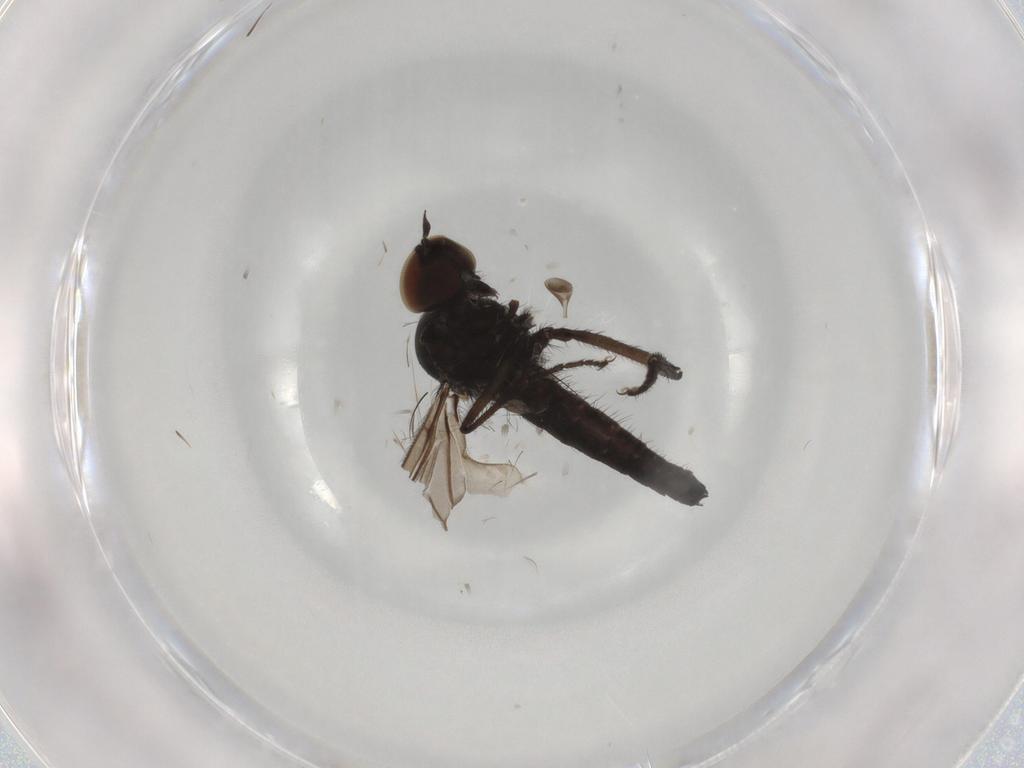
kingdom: Animalia
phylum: Arthropoda
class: Insecta
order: Diptera
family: Hybotidae
